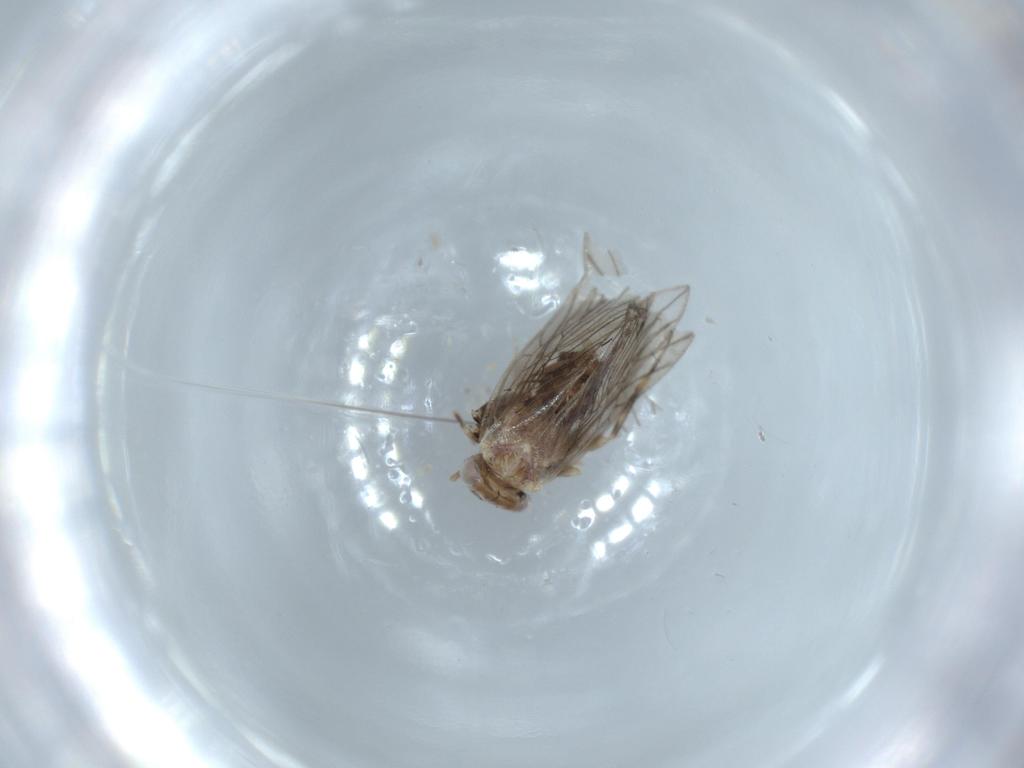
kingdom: Animalia
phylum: Arthropoda
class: Insecta
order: Psocodea
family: Lepidopsocidae
